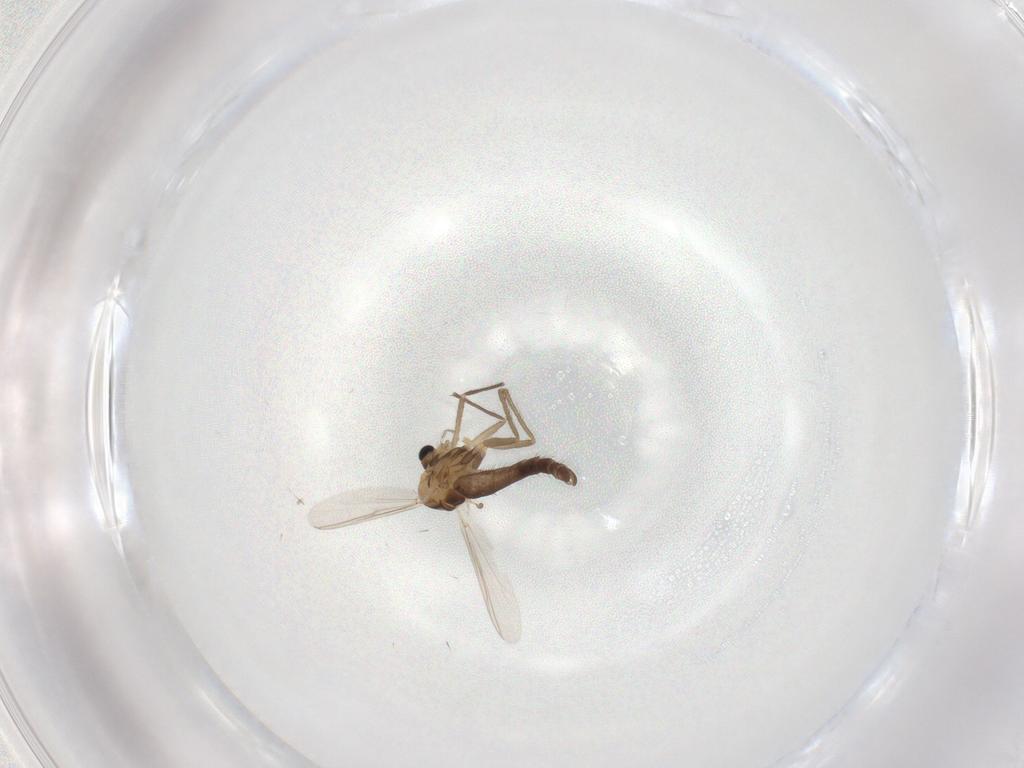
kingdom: Animalia
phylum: Arthropoda
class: Insecta
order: Diptera
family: Chironomidae
